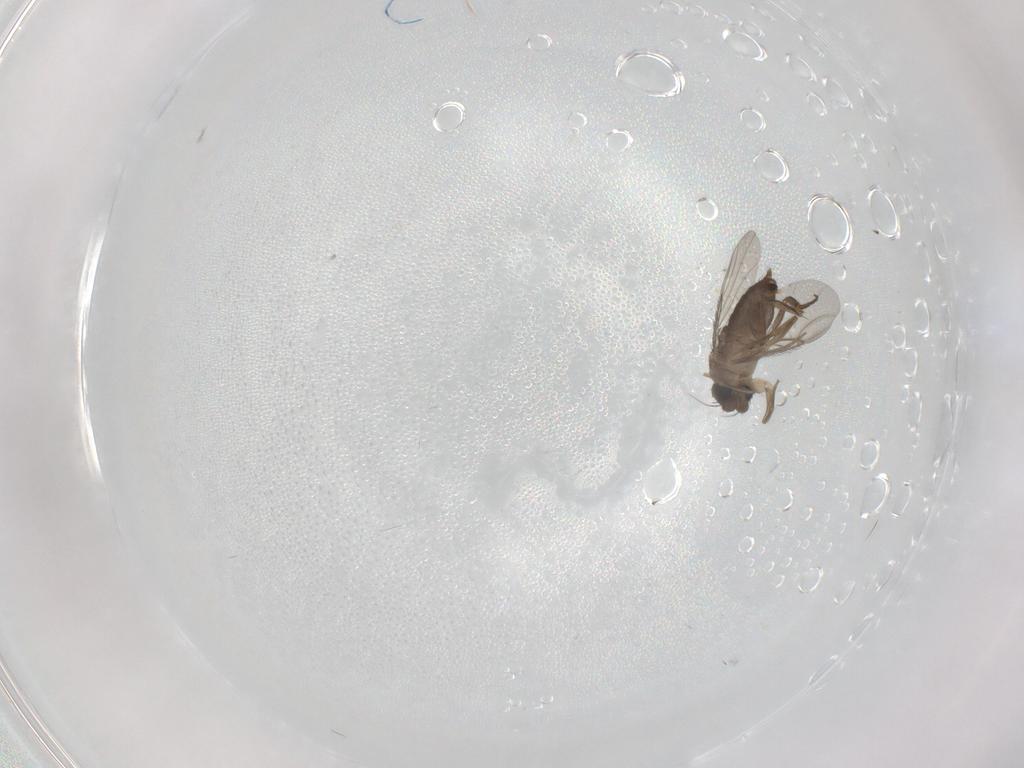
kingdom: Animalia
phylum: Arthropoda
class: Insecta
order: Diptera
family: Phoridae
